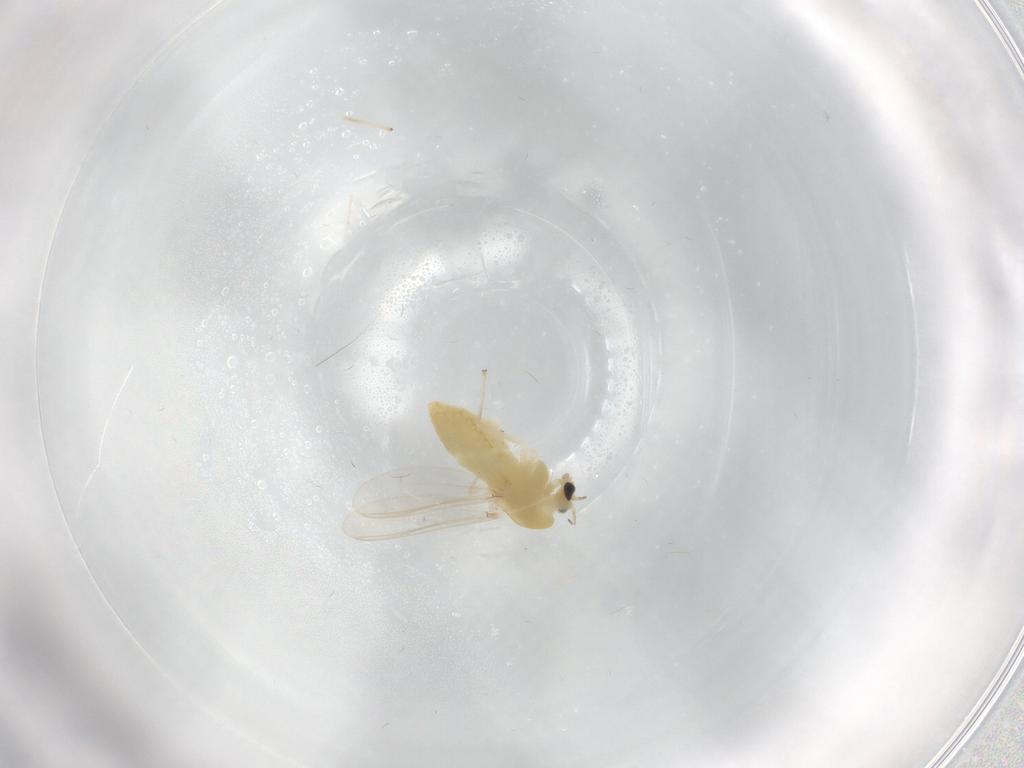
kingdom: Animalia
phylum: Arthropoda
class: Insecta
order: Diptera
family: Chironomidae
